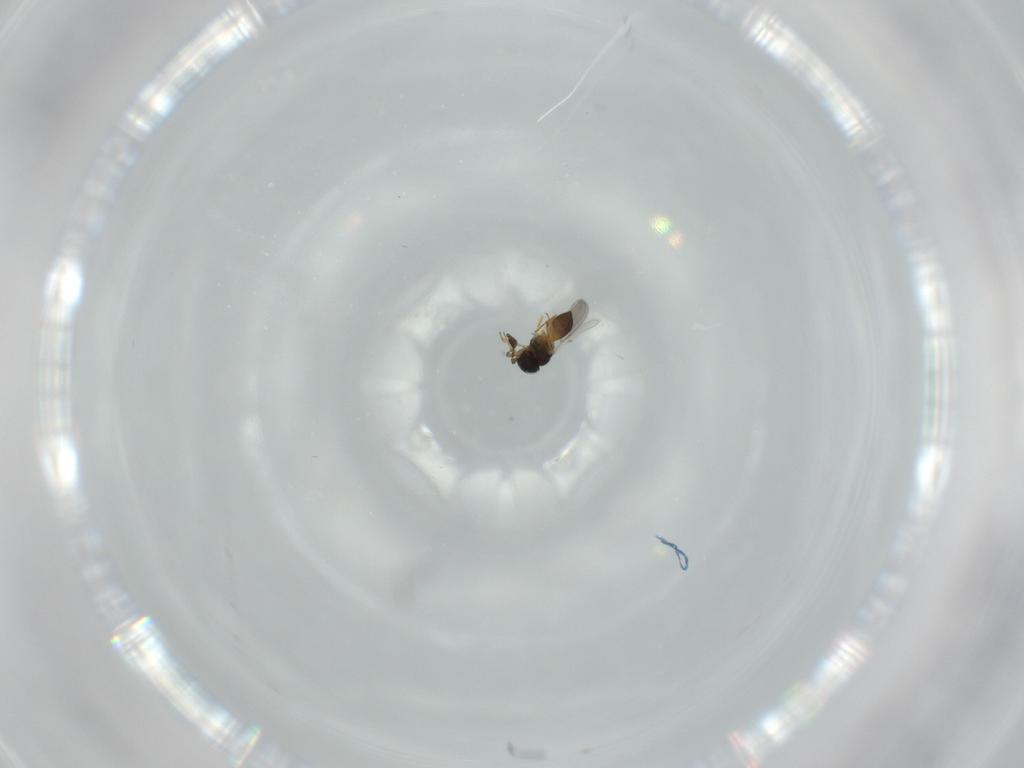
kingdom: Animalia
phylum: Arthropoda
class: Insecta
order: Lepidoptera
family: Tineidae
